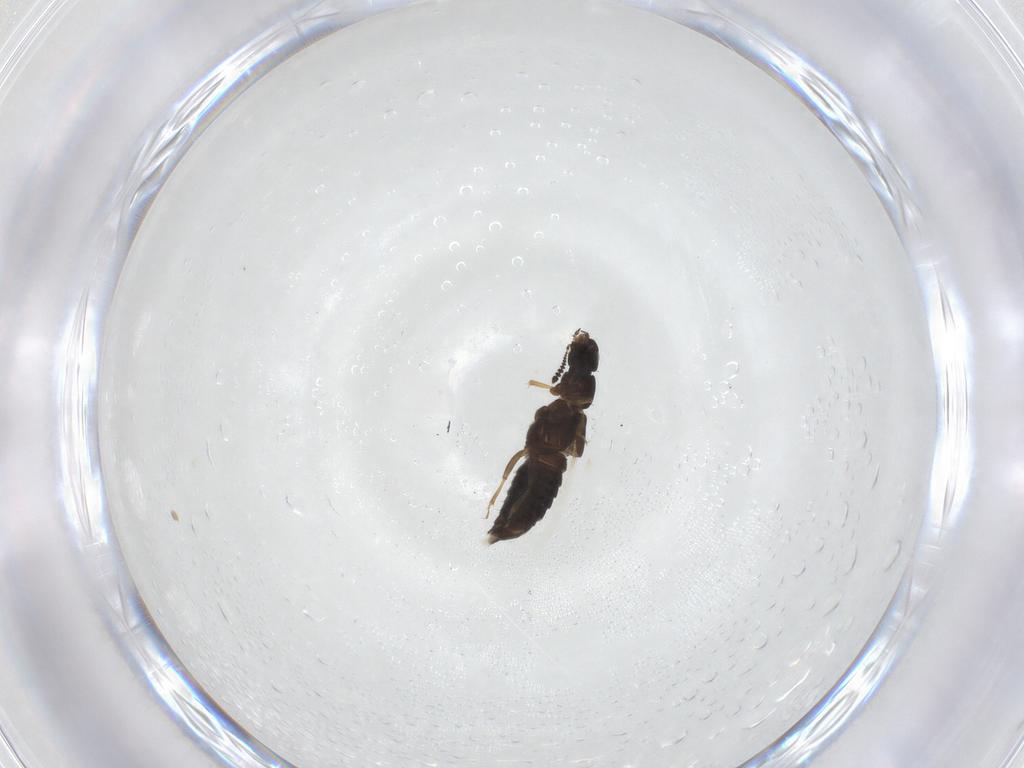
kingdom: Animalia
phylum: Arthropoda
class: Insecta
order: Coleoptera
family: Staphylinidae
